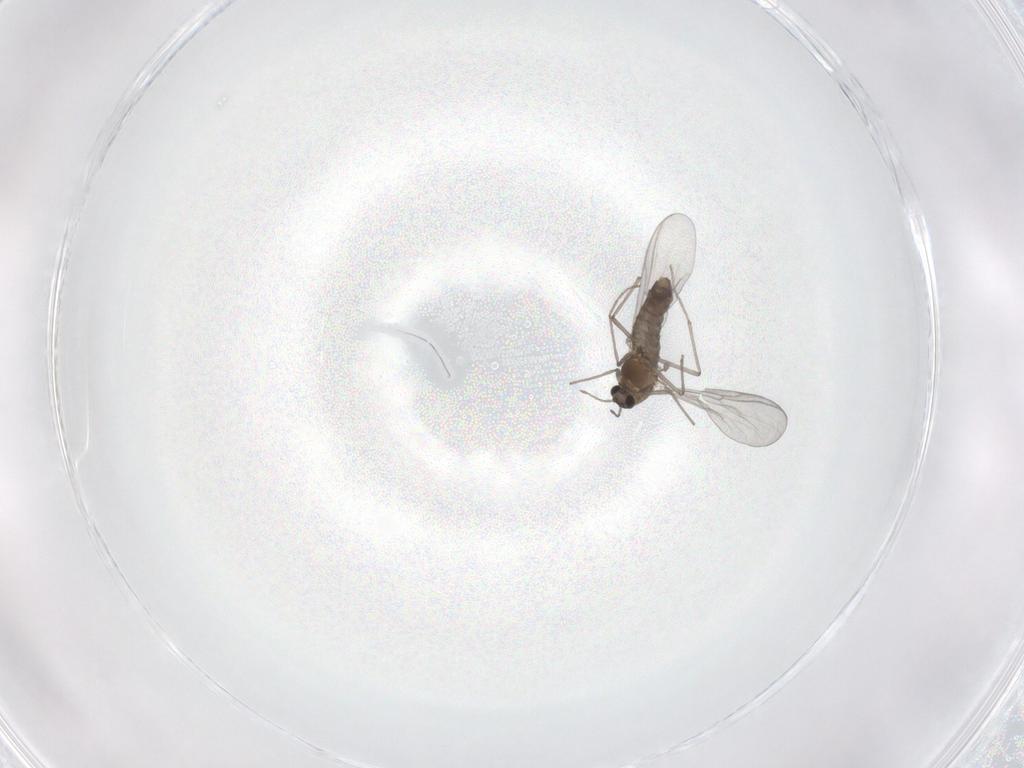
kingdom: Animalia
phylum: Arthropoda
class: Insecta
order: Diptera
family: Chironomidae
